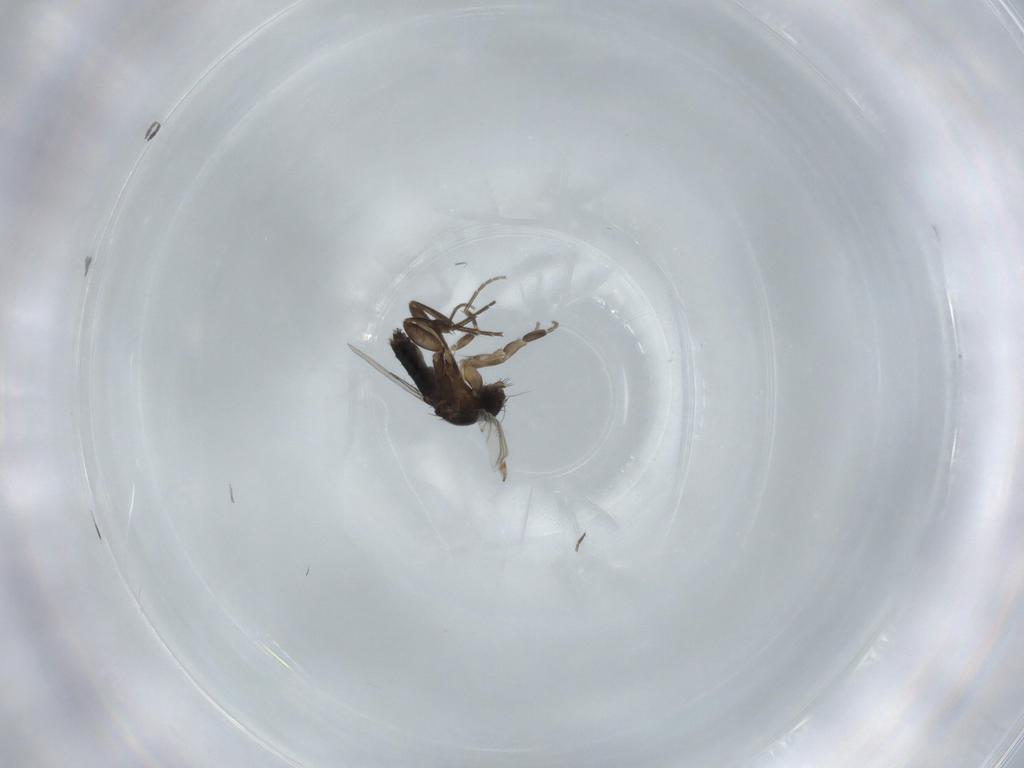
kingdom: Animalia
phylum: Arthropoda
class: Insecta
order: Diptera
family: Phoridae
